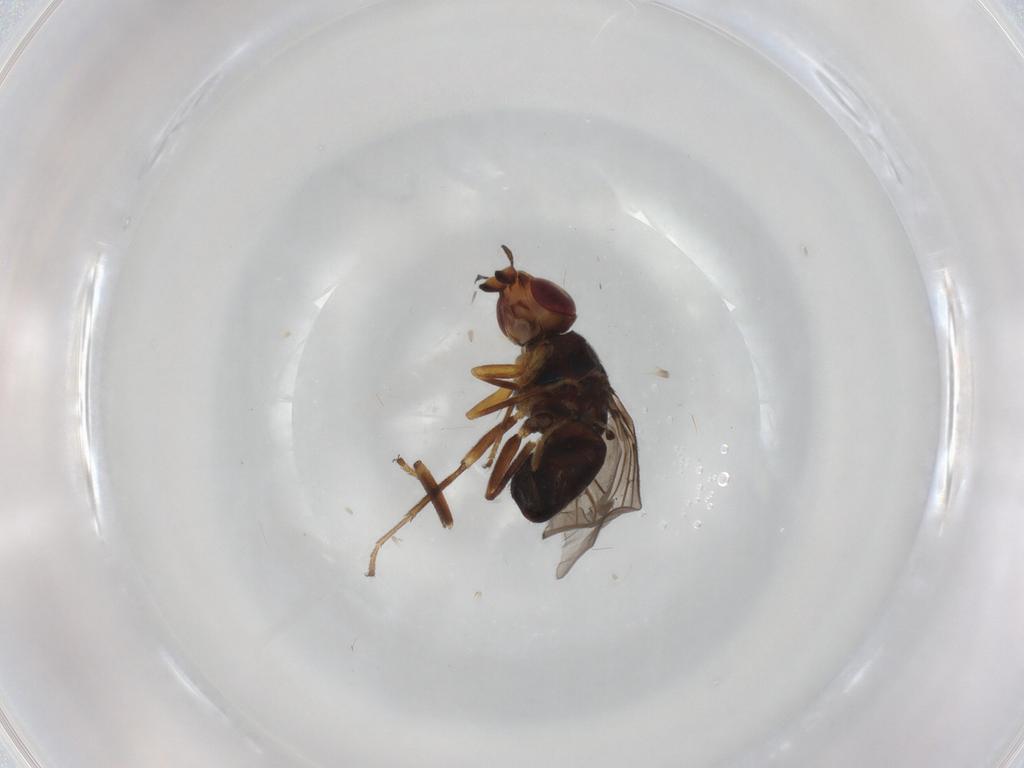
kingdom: Animalia
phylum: Arthropoda
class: Insecta
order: Diptera
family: Chloropidae
